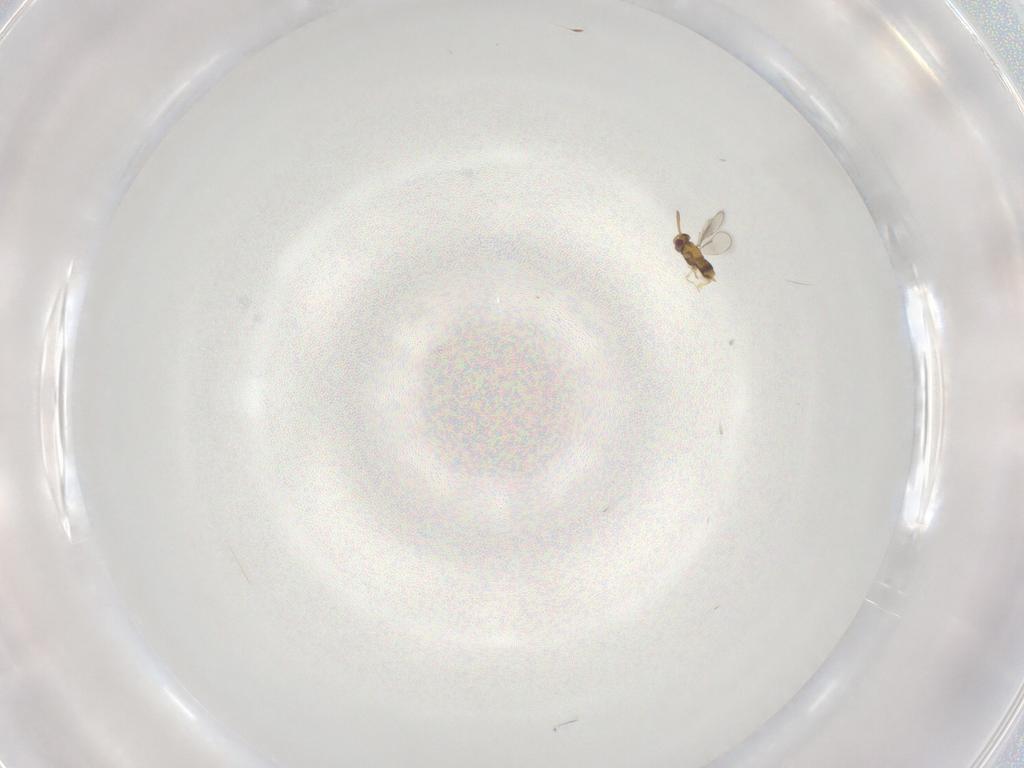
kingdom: Animalia
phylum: Arthropoda
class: Insecta
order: Hymenoptera
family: Aphelinidae
